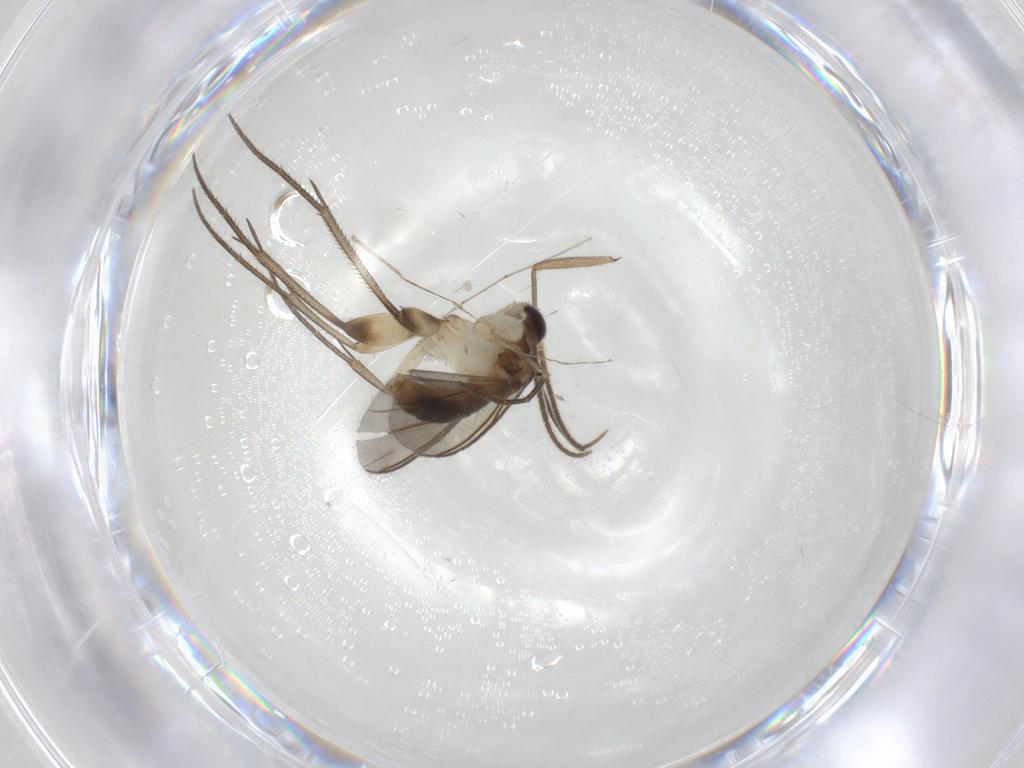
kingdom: Animalia
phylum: Arthropoda
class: Insecta
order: Diptera
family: Mycetophilidae
